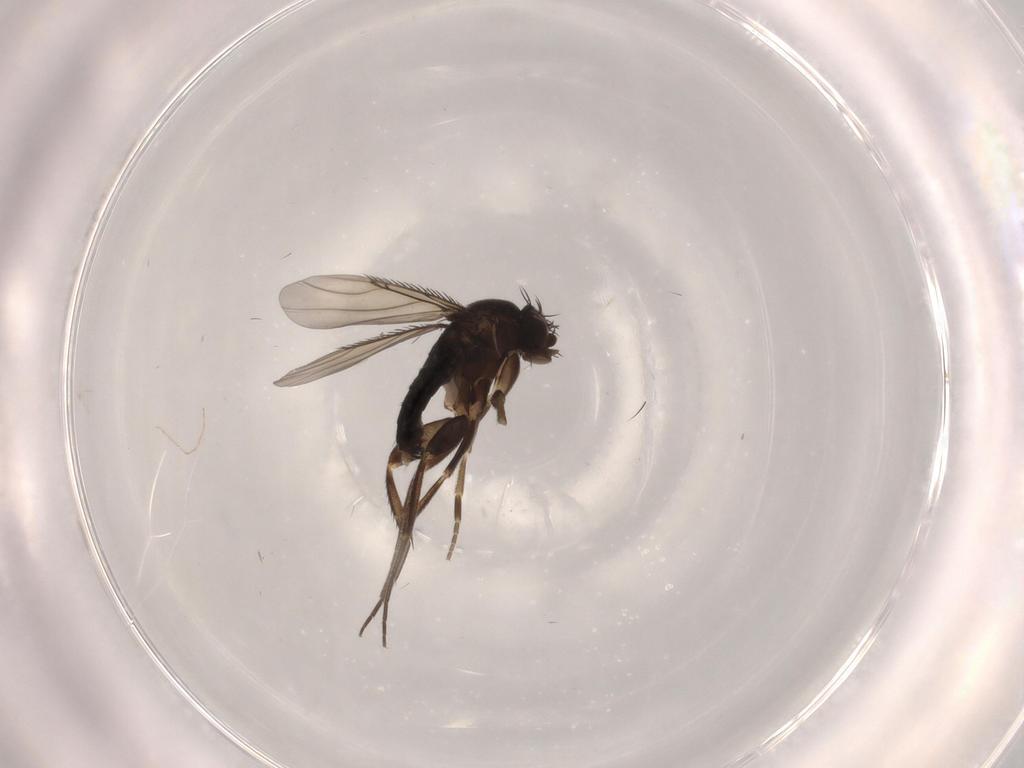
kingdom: Animalia
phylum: Arthropoda
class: Insecta
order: Diptera
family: Phoridae
